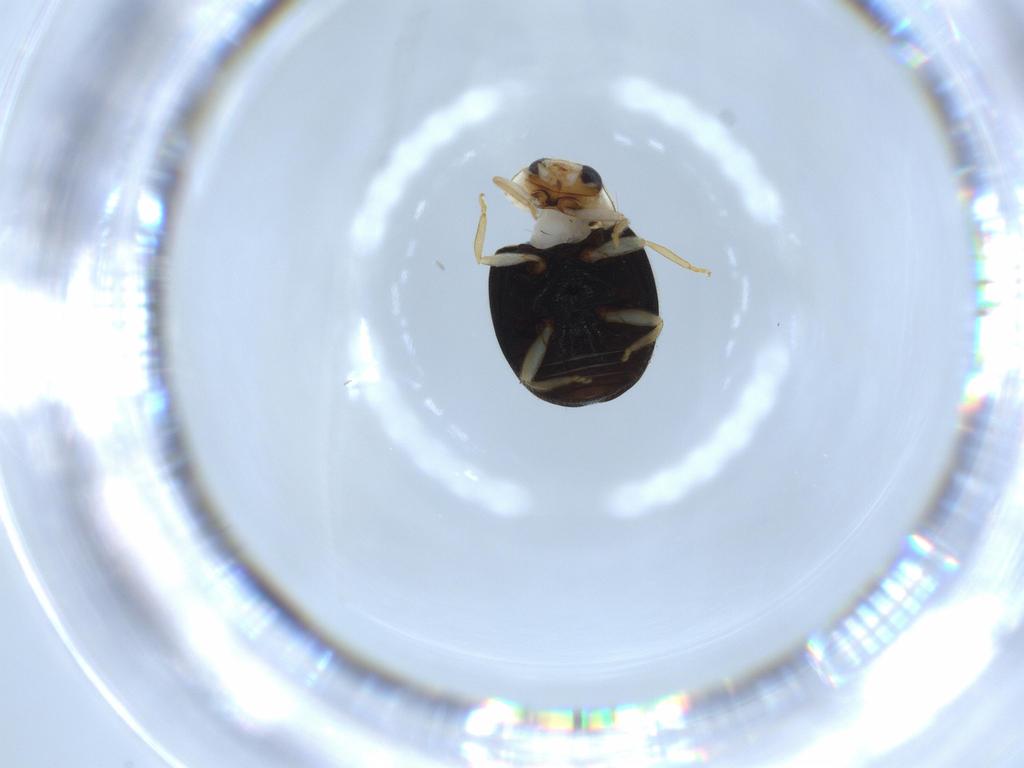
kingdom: Animalia
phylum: Arthropoda
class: Insecta
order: Coleoptera
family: Coccinellidae
